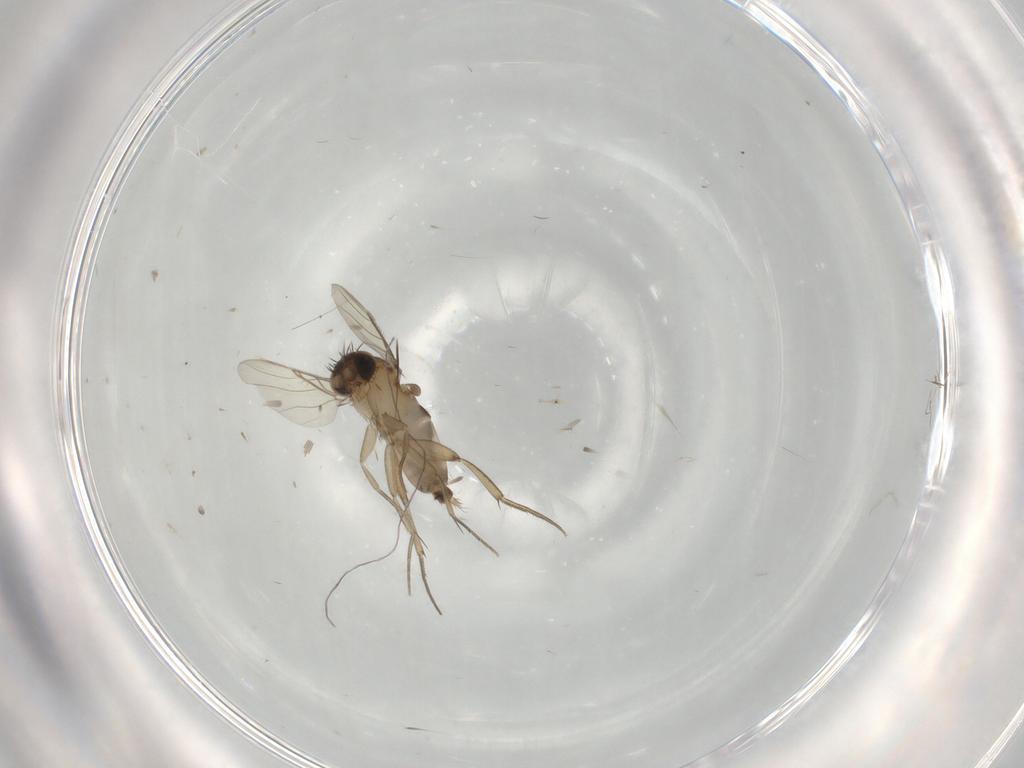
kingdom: Animalia
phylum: Arthropoda
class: Insecta
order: Diptera
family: Phoridae
